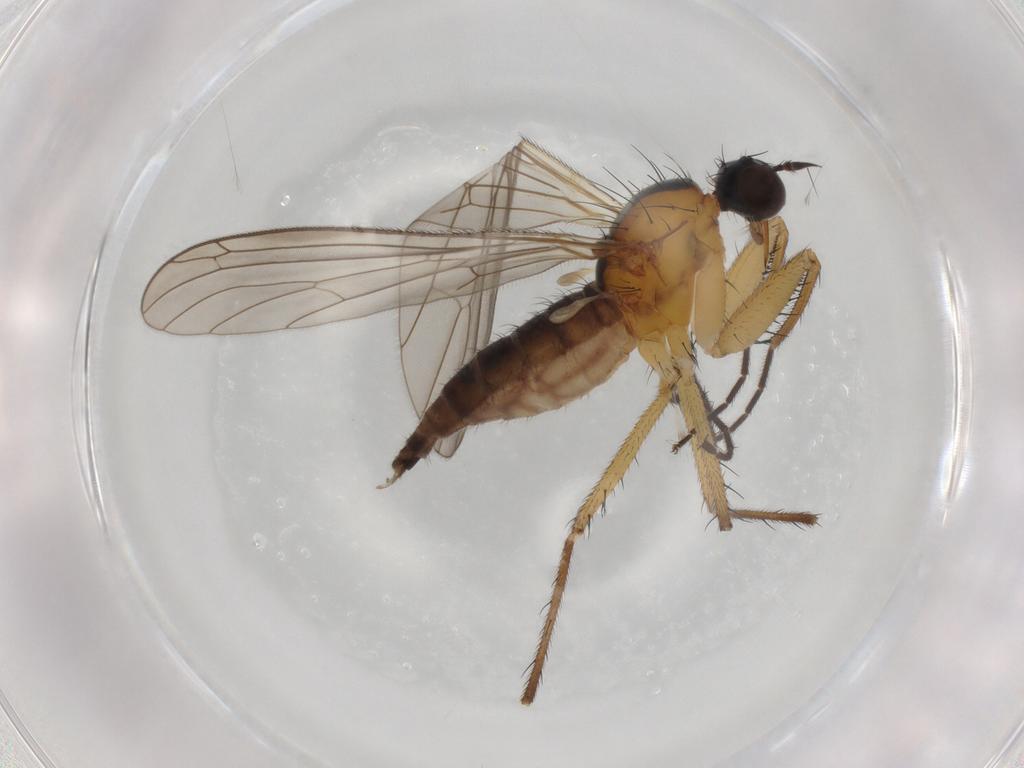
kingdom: Animalia
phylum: Arthropoda
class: Insecta
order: Diptera
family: Empididae
